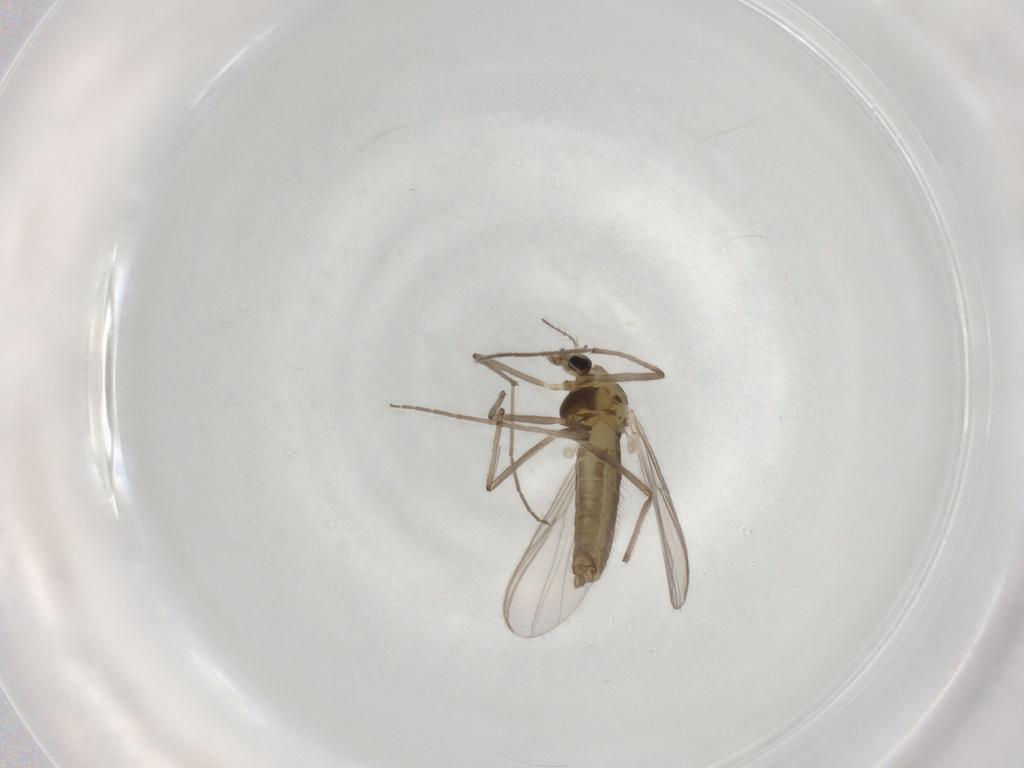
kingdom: Animalia
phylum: Arthropoda
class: Insecta
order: Diptera
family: Chironomidae
